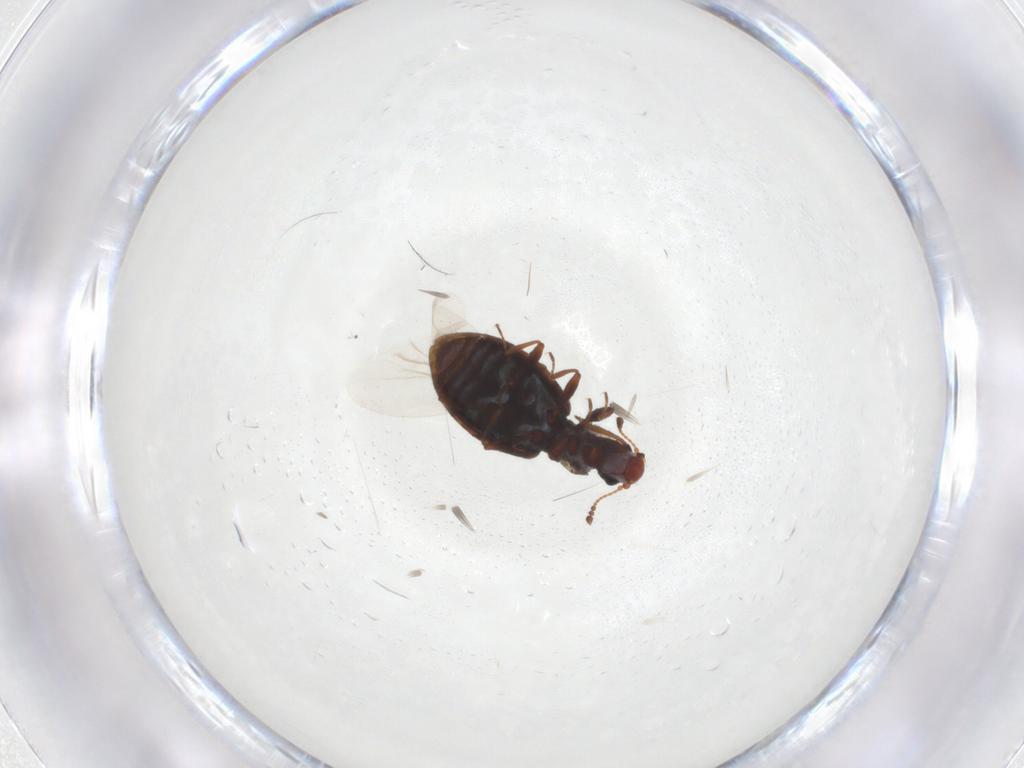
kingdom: Animalia
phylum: Arthropoda
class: Insecta
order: Coleoptera
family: Latridiidae
